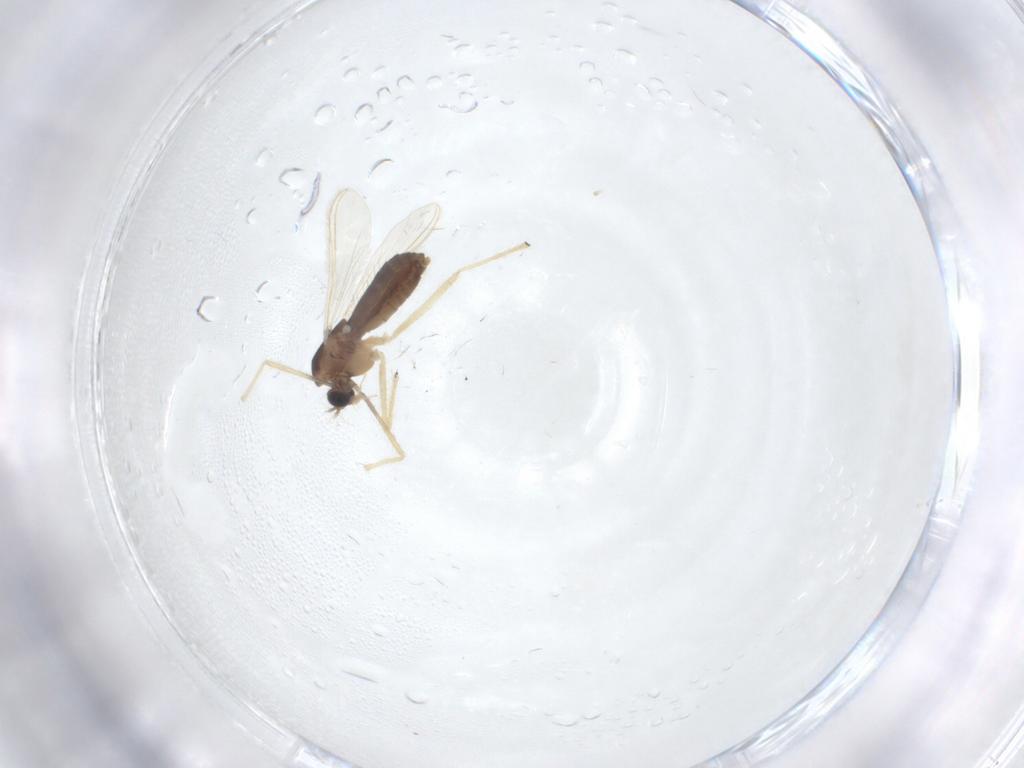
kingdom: Animalia
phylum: Arthropoda
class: Insecta
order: Diptera
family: Chironomidae
